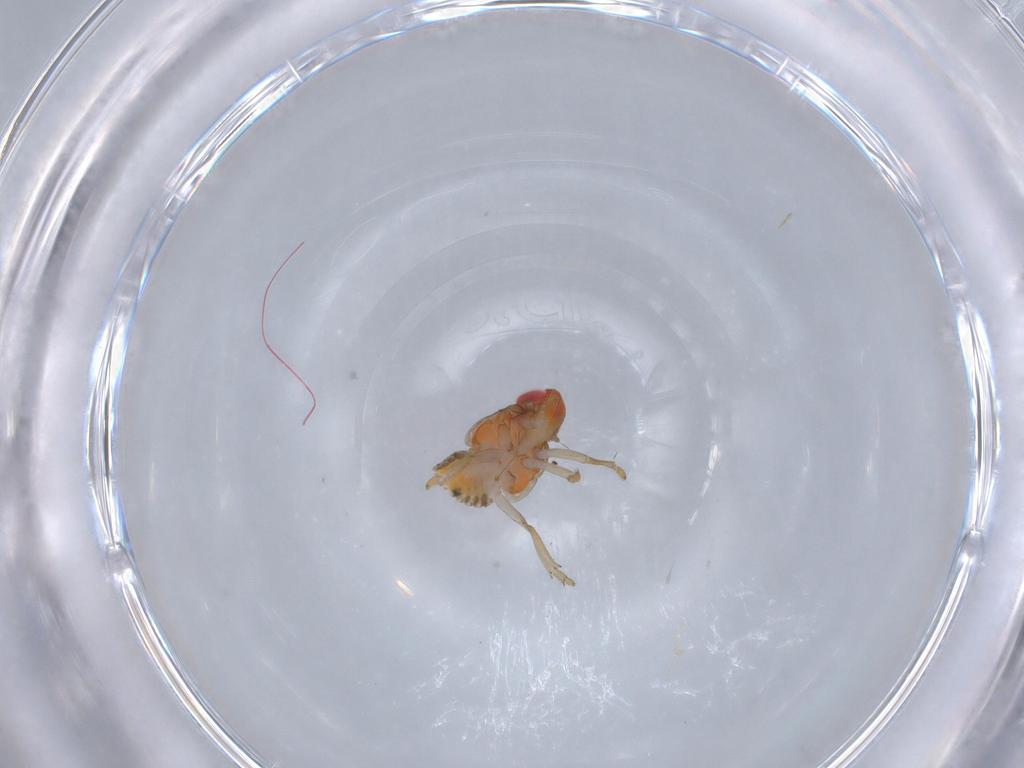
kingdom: Animalia
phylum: Arthropoda
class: Insecta
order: Hemiptera
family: Fulgoroidea_incertae_sedis
